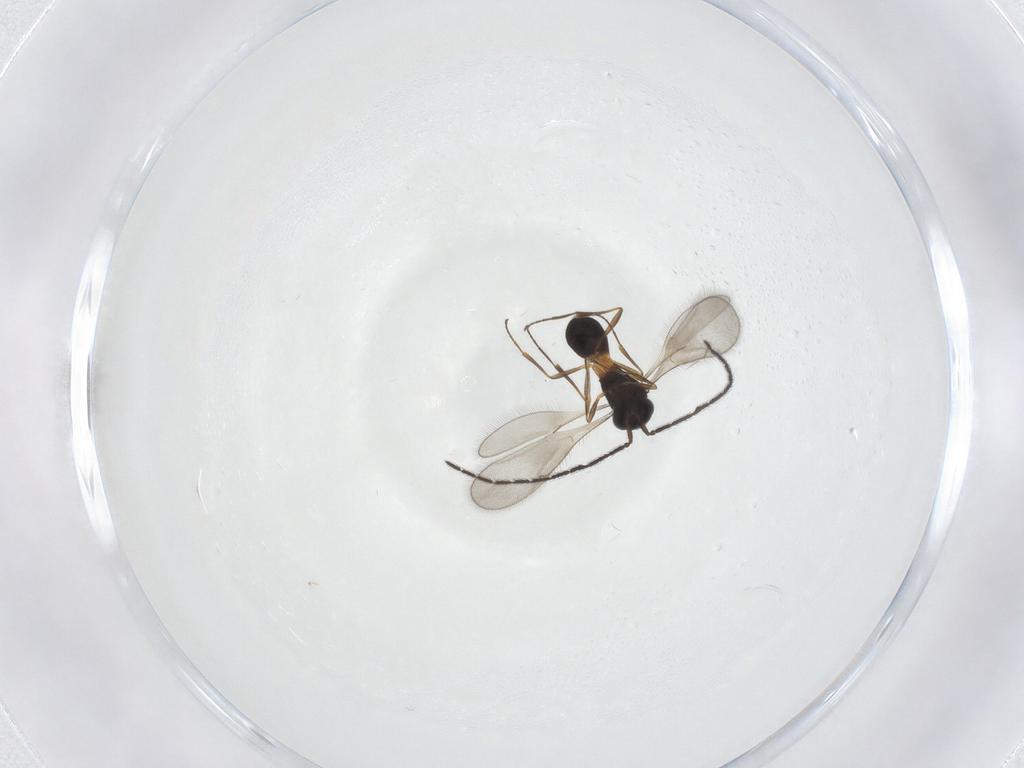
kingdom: Animalia
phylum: Arthropoda
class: Insecta
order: Hymenoptera
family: Scelionidae
